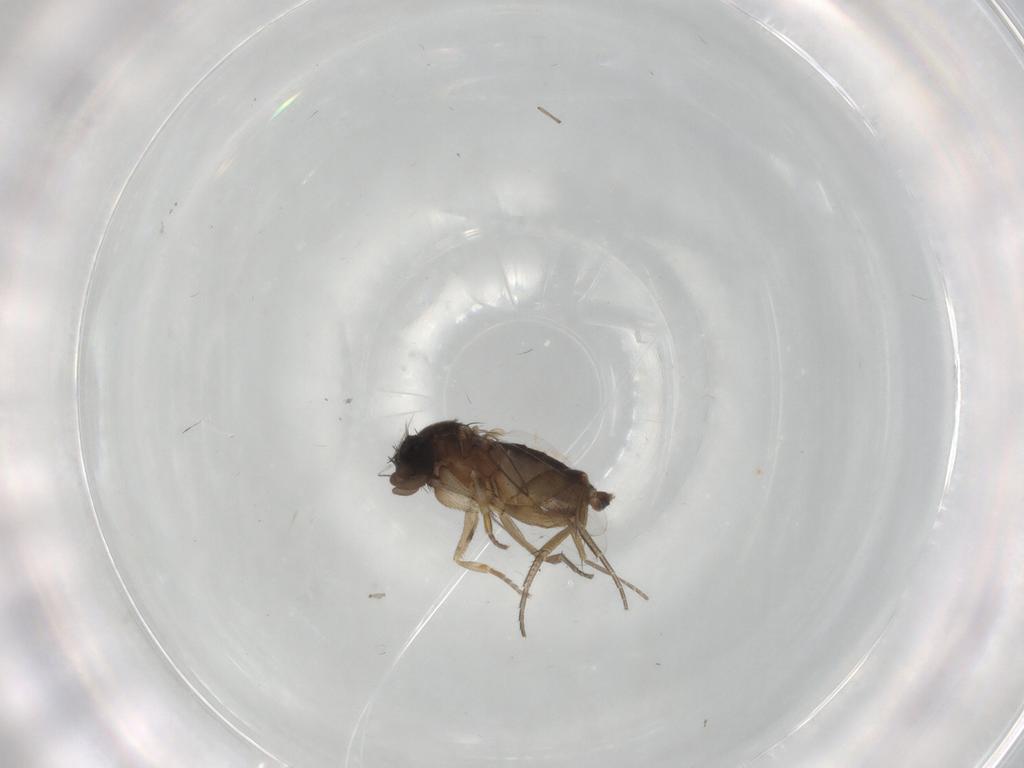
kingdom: Animalia
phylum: Arthropoda
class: Insecta
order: Diptera
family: Phoridae
